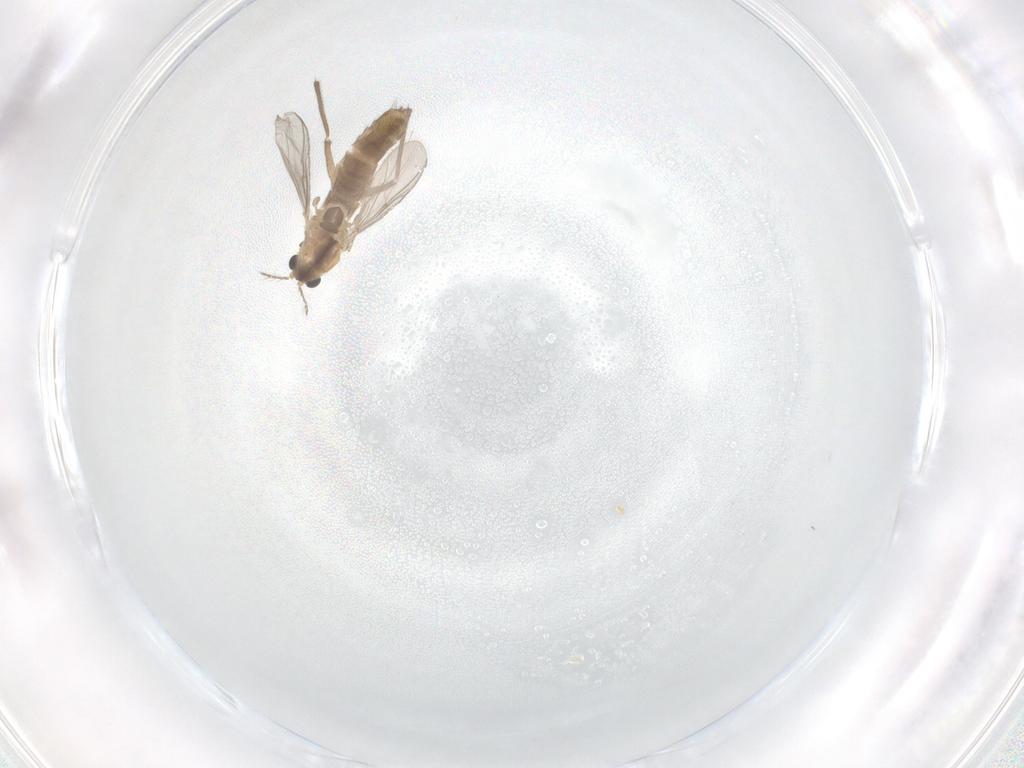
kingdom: Animalia
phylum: Arthropoda
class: Insecta
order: Diptera
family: Chironomidae
